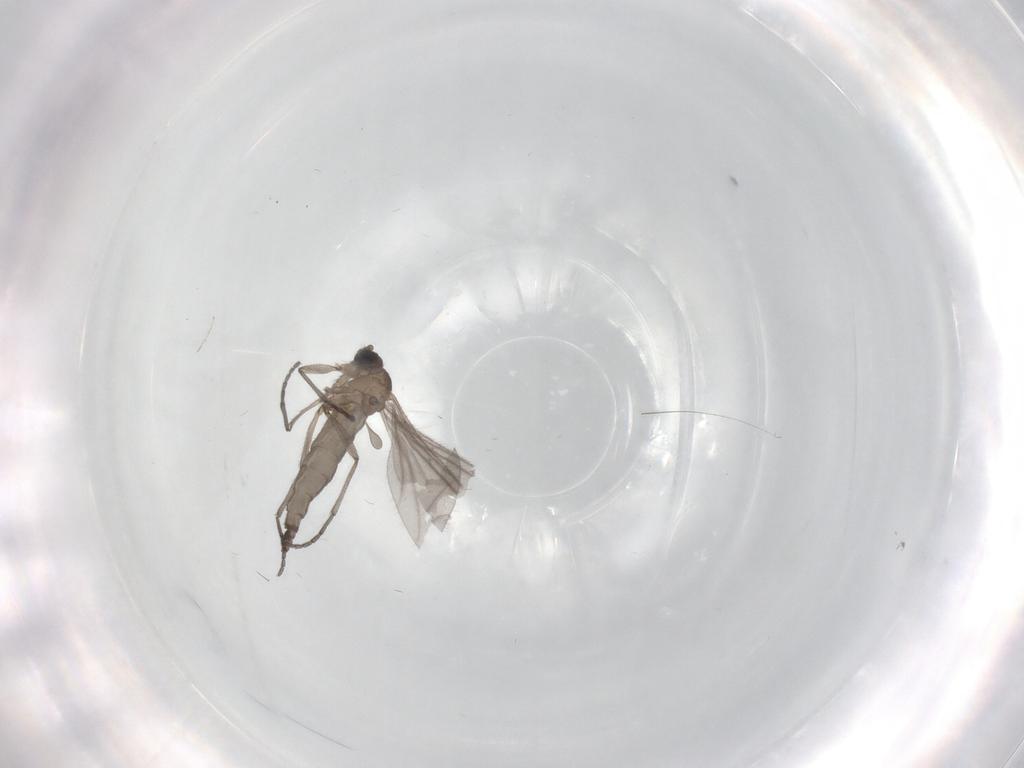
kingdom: Animalia
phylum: Arthropoda
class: Insecta
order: Diptera
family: Sciaridae
